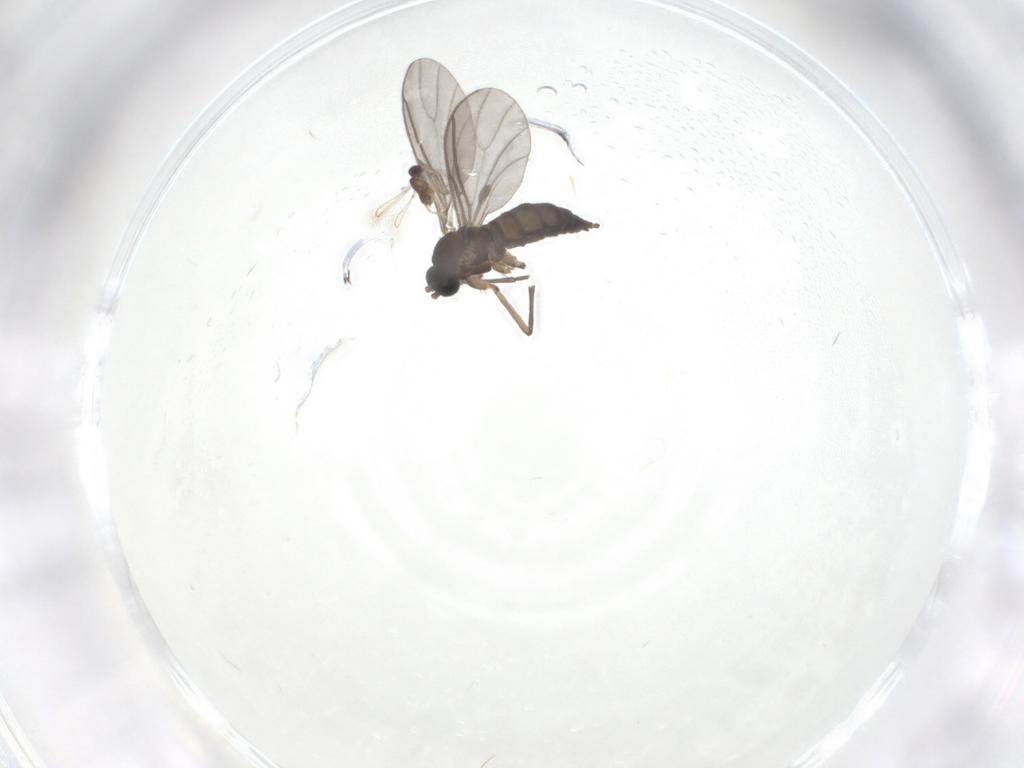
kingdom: Animalia
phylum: Arthropoda
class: Insecta
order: Diptera
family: Sciaridae
